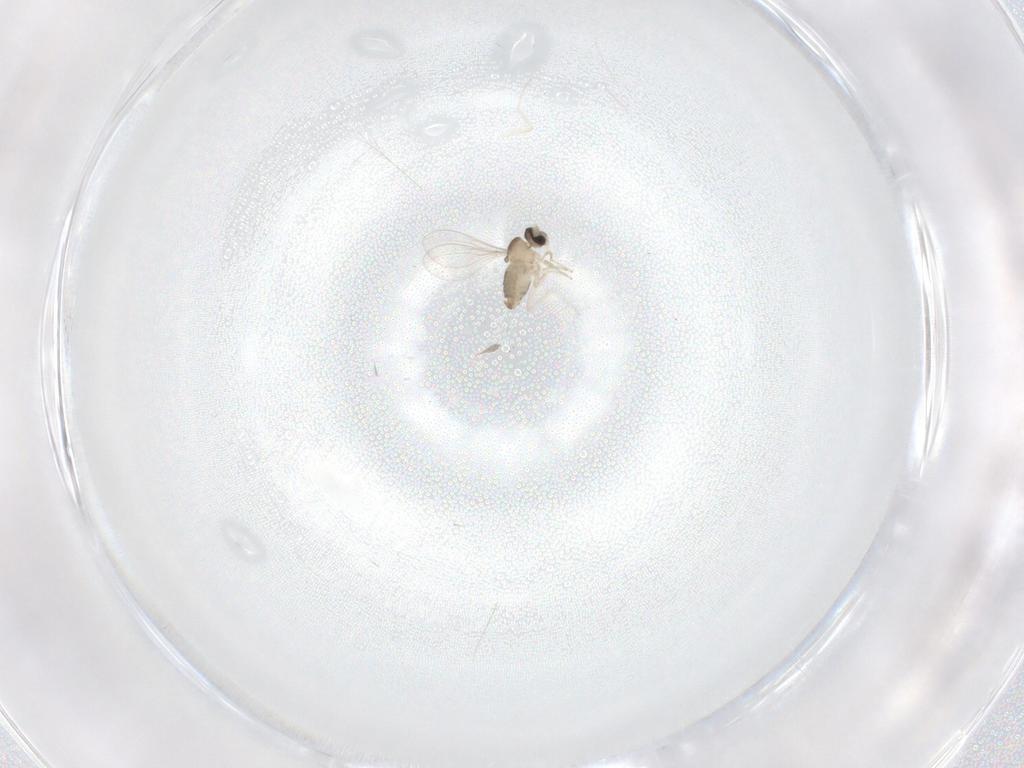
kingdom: Animalia
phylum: Arthropoda
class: Insecta
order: Diptera
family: Cecidomyiidae
